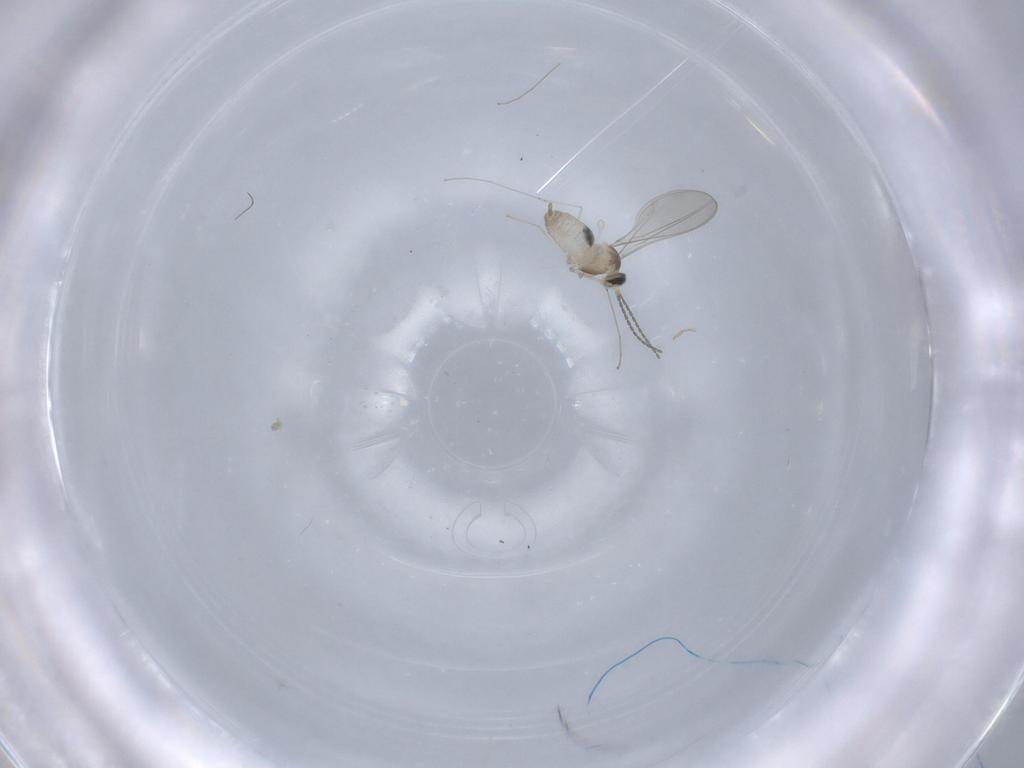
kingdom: Animalia
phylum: Arthropoda
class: Insecta
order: Diptera
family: Cecidomyiidae
